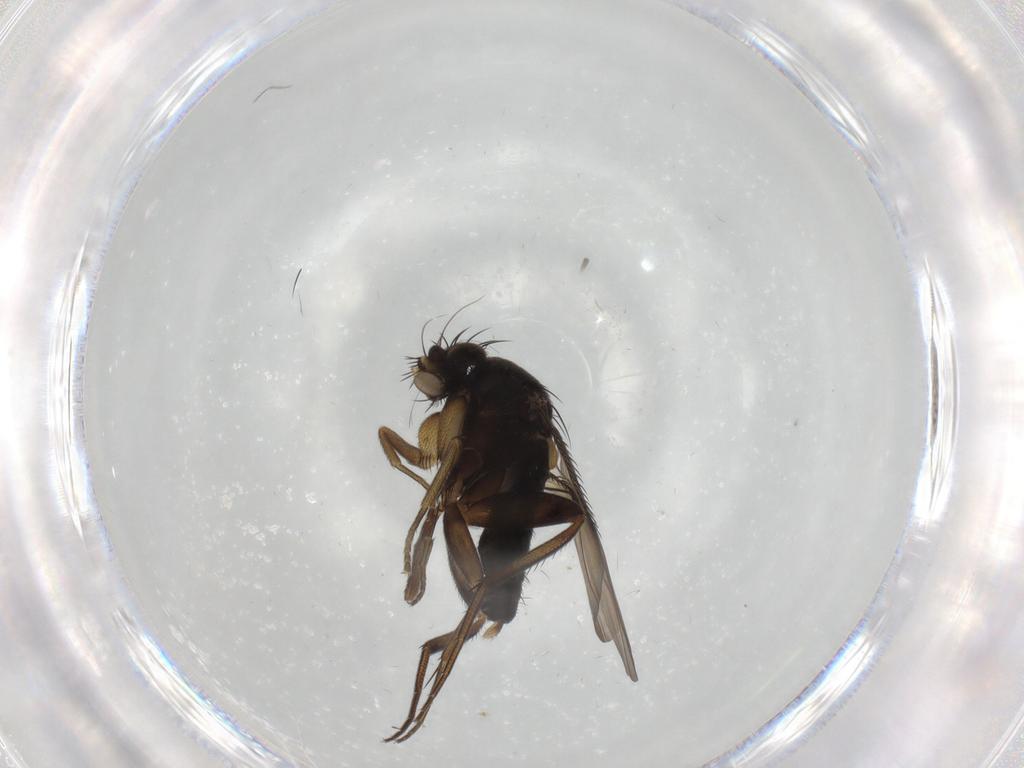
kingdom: Animalia
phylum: Arthropoda
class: Insecta
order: Diptera
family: Phoridae
